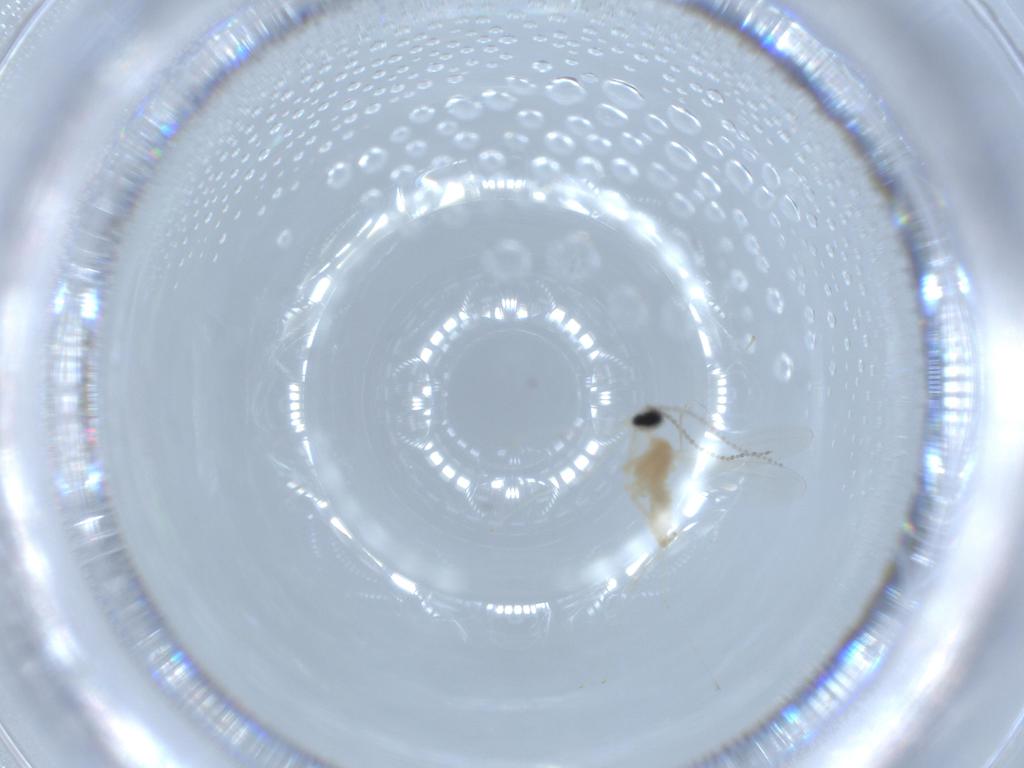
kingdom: Animalia
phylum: Arthropoda
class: Insecta
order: Diptera
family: Cecidomyiidae
